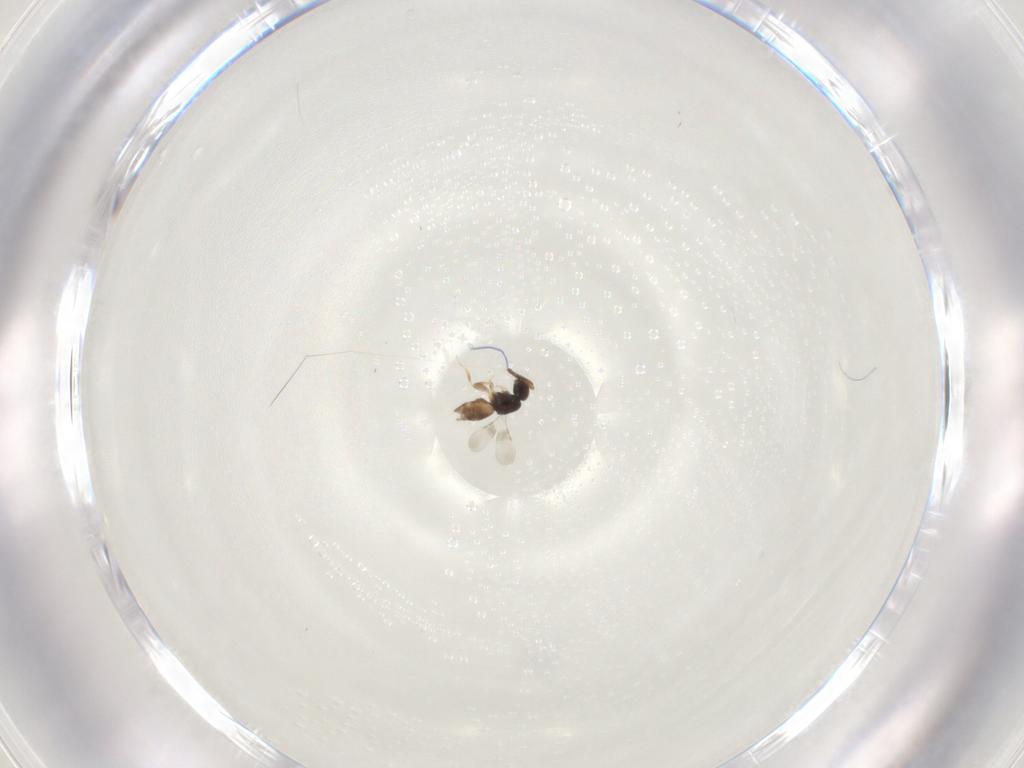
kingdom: Animalia
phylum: Arthropoda
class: Insecta
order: Hymenoptera
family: Ceraphronidae
